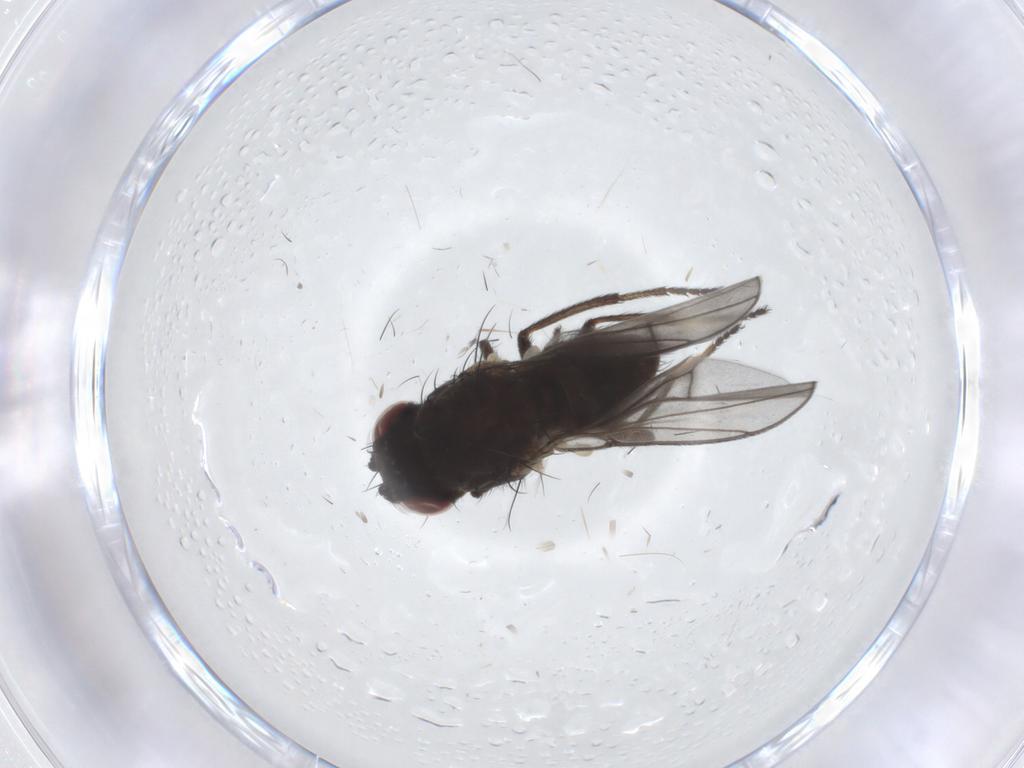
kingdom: Animalia
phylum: Arthropoda
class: Insecta
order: Diptera
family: Ephydridae
